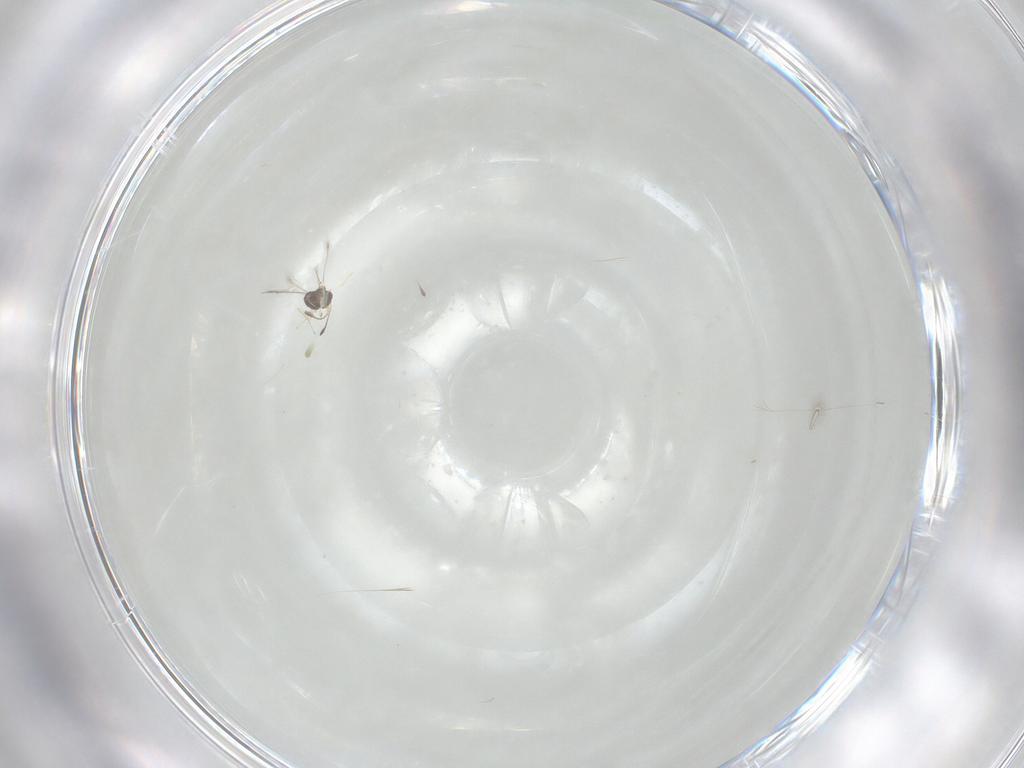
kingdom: Animalia
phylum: Arthropoda
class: Insecta
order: Hymenoptera
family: Mymaridae
